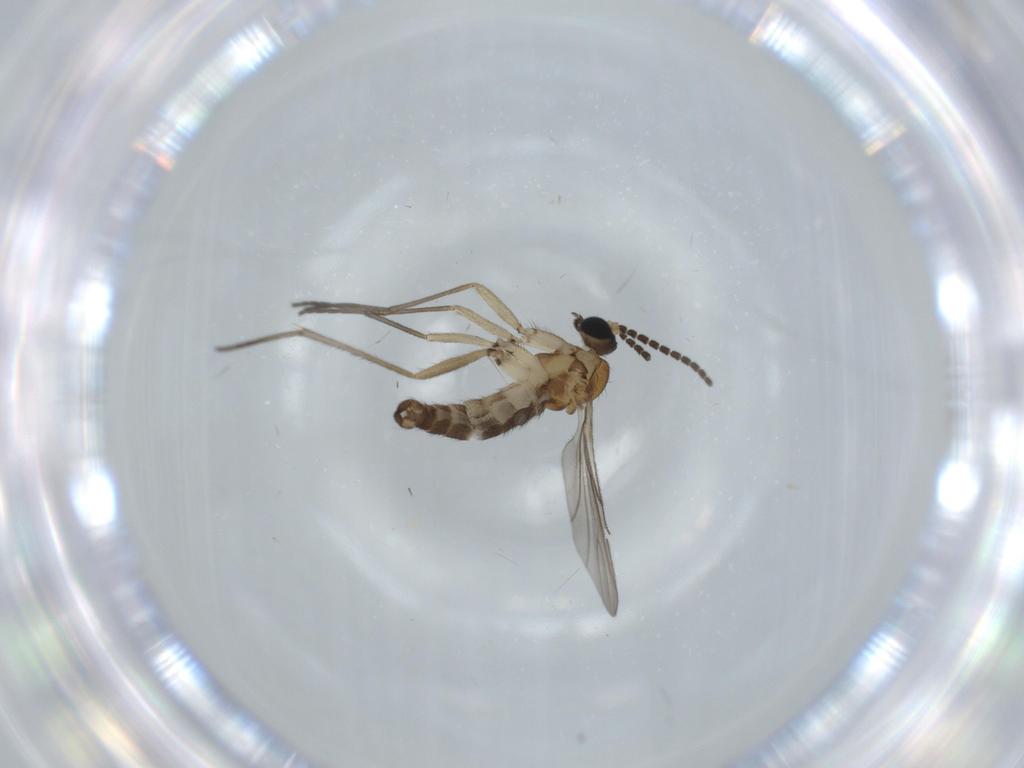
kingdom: Animalia
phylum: Arthropoda
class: Insecta
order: Diptera
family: Sciaridae
